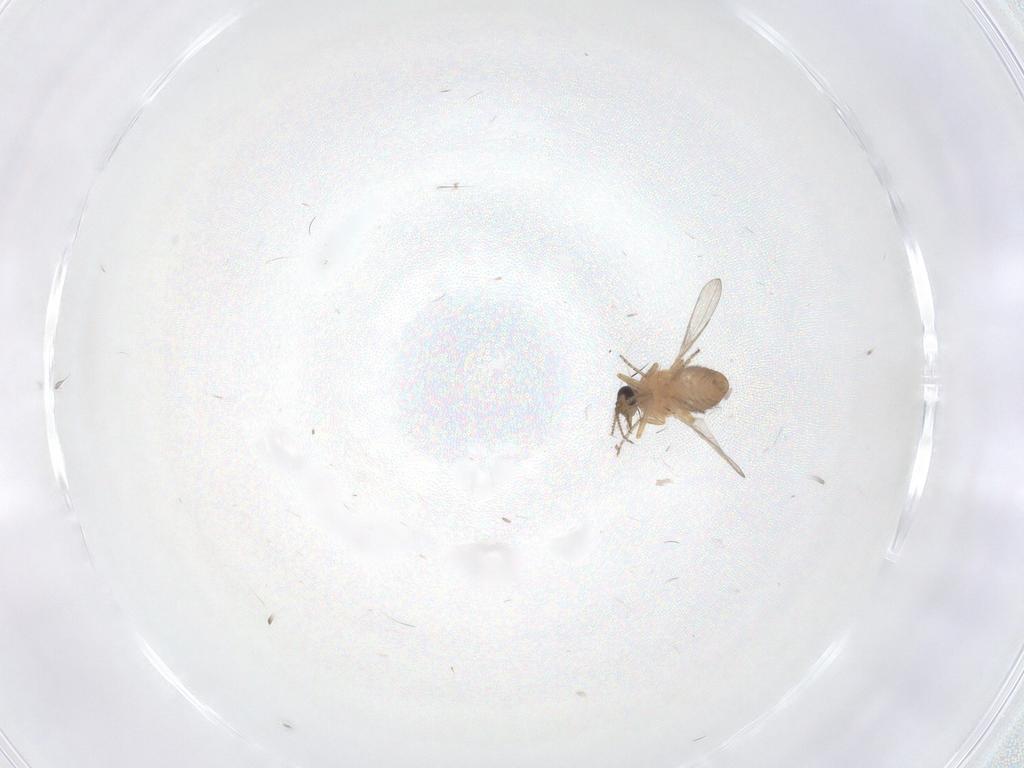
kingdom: Animalia
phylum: Arthropoda
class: Insecta
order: Diptera
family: Ceratopogonidae
